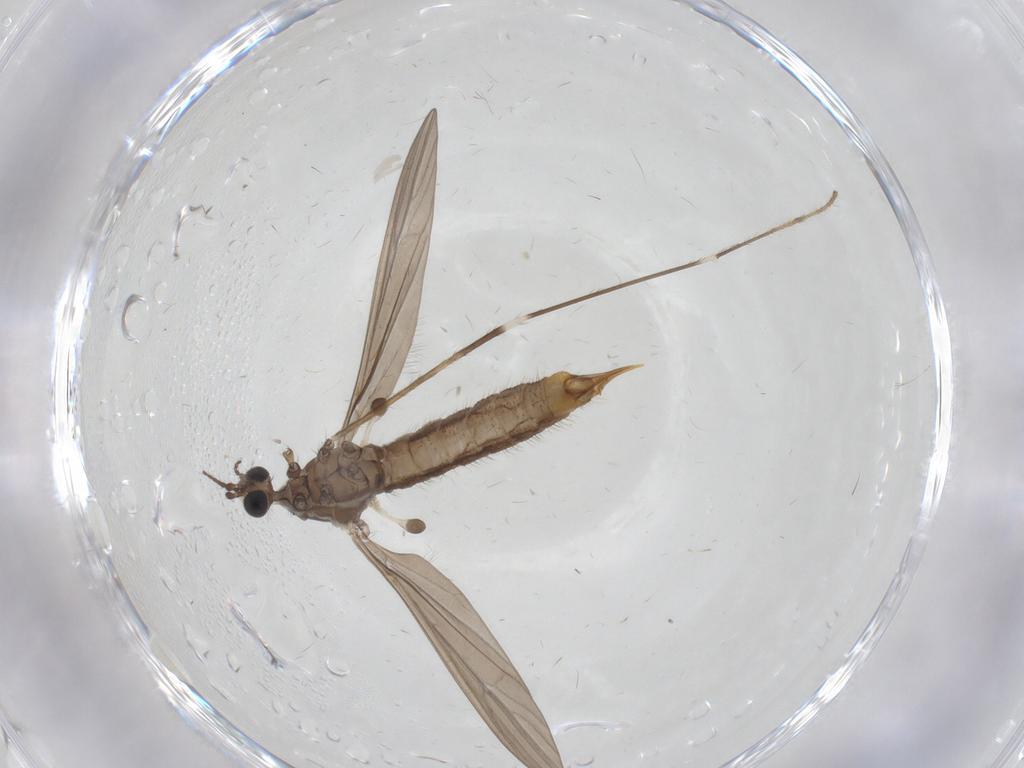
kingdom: Animalia
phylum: Arthropoda
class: Insecta
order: Diptera
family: Limoniidae
